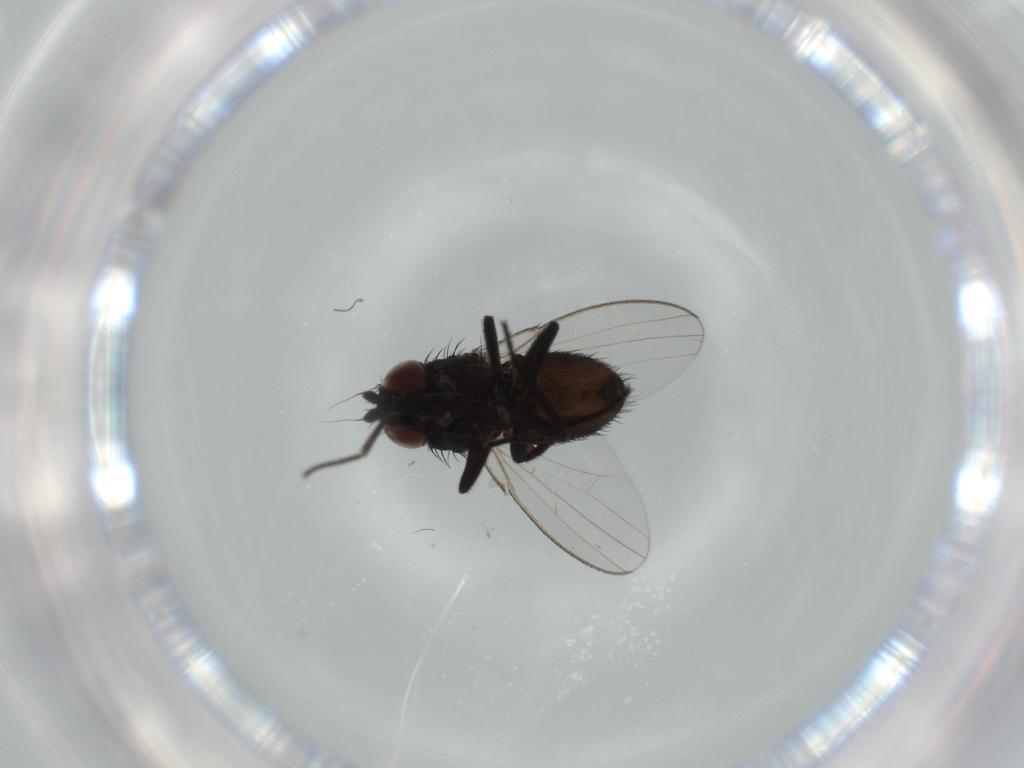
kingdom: Animalia
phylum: Arthropoda
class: Insecta
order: Diptera
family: Milichiidae
